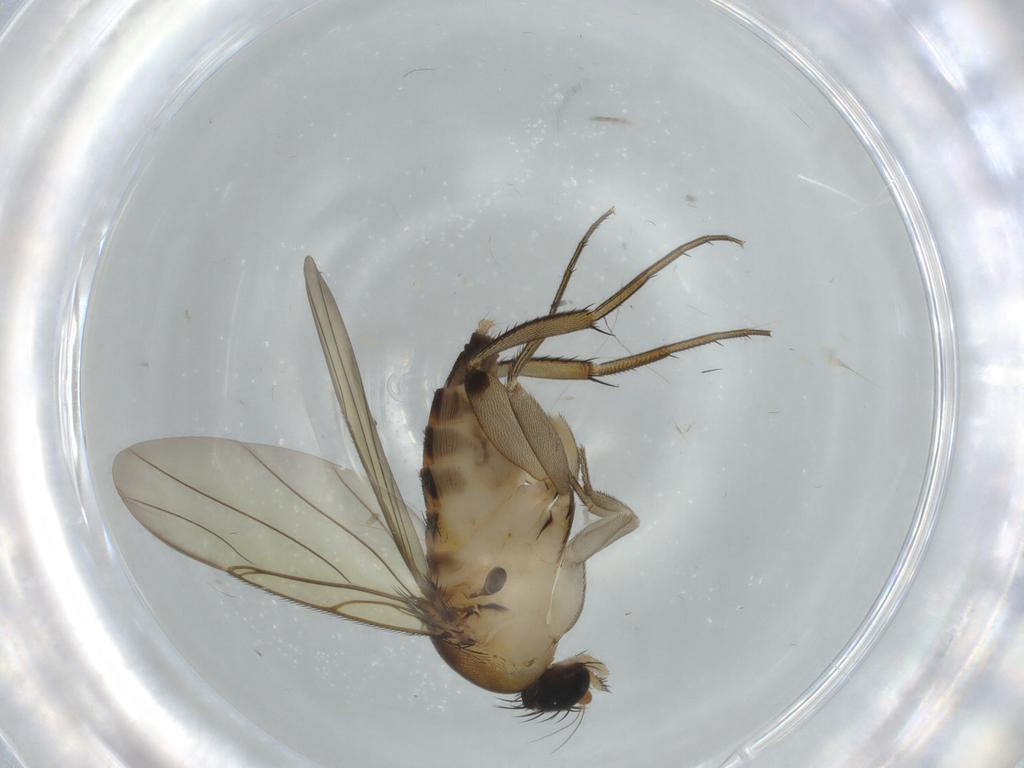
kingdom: Animalia
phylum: Arthropoda
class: Insecta
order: Diptera
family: Phoridae
